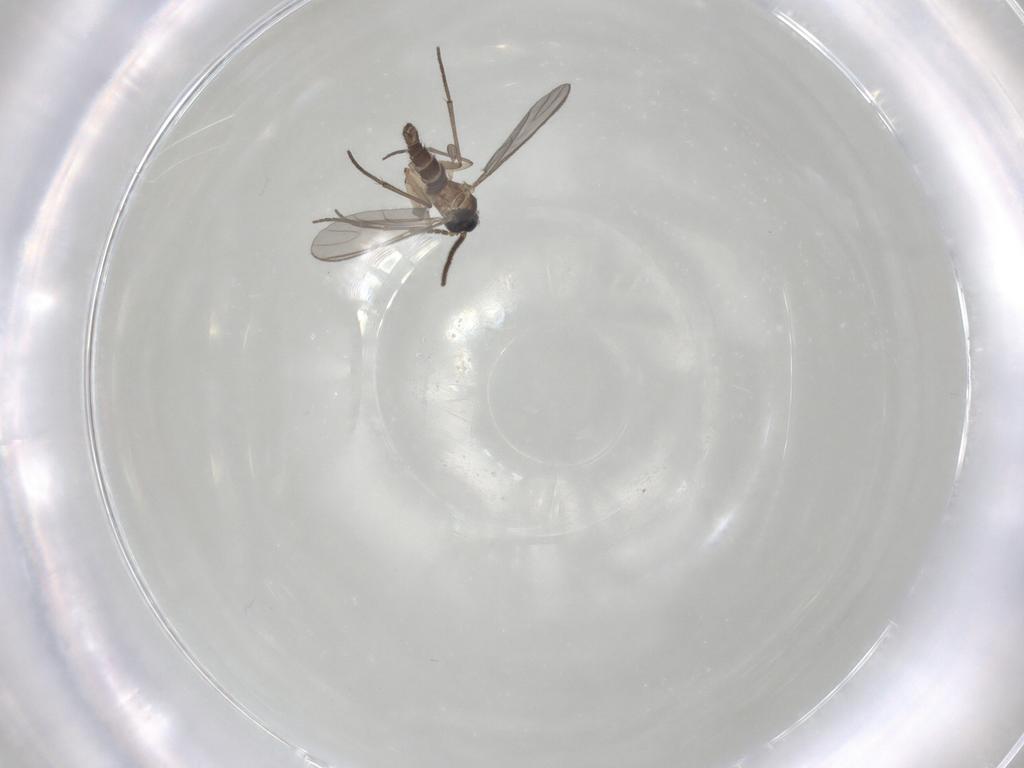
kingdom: Animalia
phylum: Arthropoda
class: Insecta
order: Diptera
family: Sciaridae
